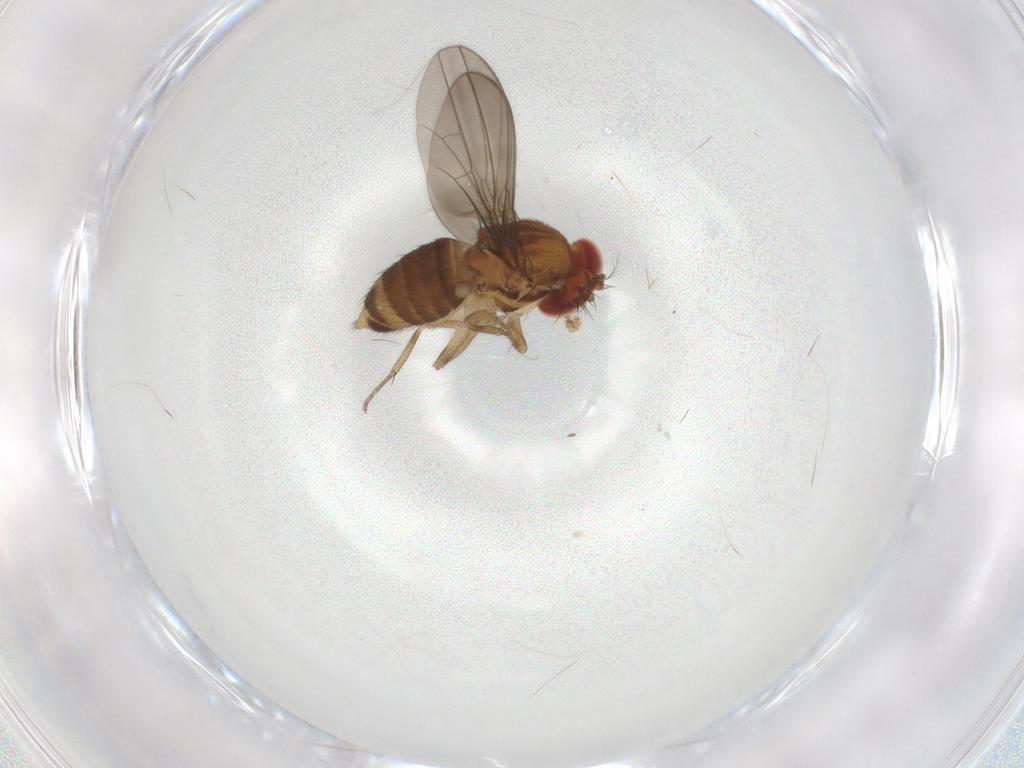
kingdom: Animalia
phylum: Arthropoda
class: Insecta
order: Diptera
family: Drosophilidae
